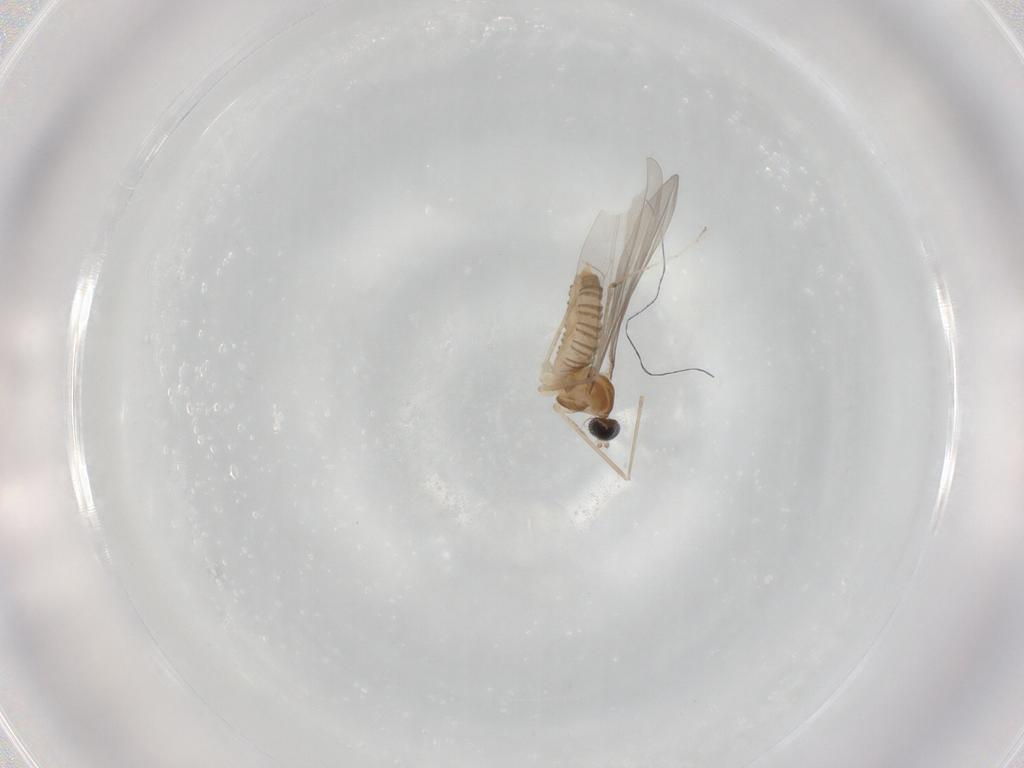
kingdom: Animalia
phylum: Arthropoda
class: Insecta
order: Diptera
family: Cecidomyiidae
